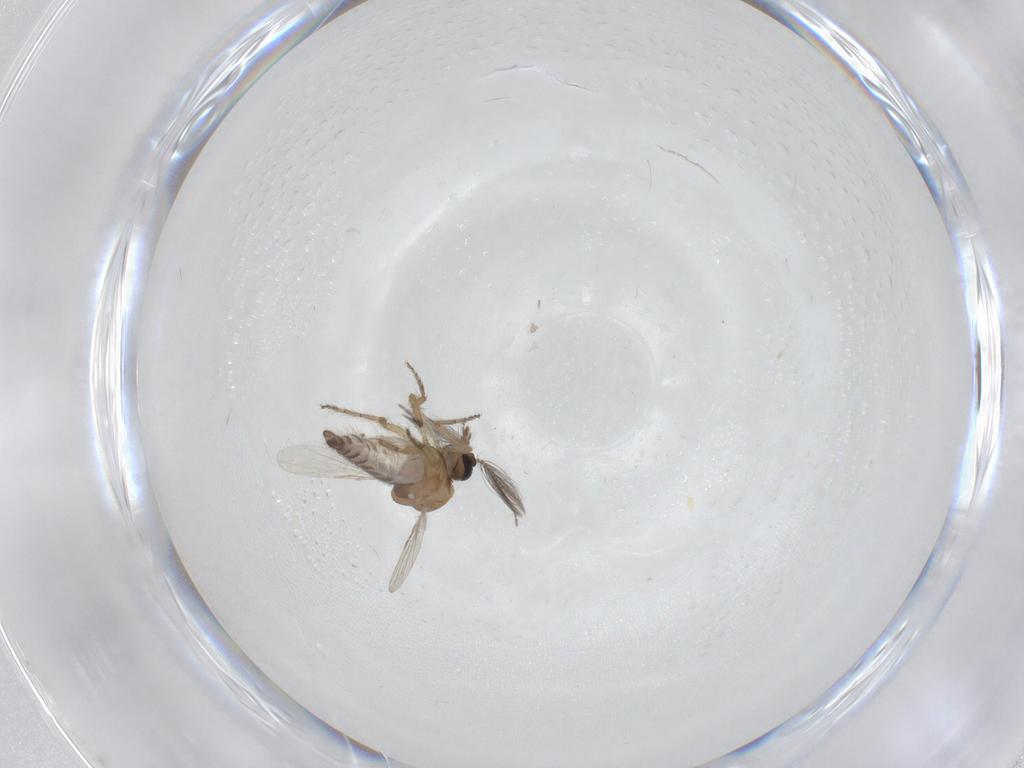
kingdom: Animalia
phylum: Arthropoda
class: Insecta
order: Diptera
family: Ceratopogonidae
